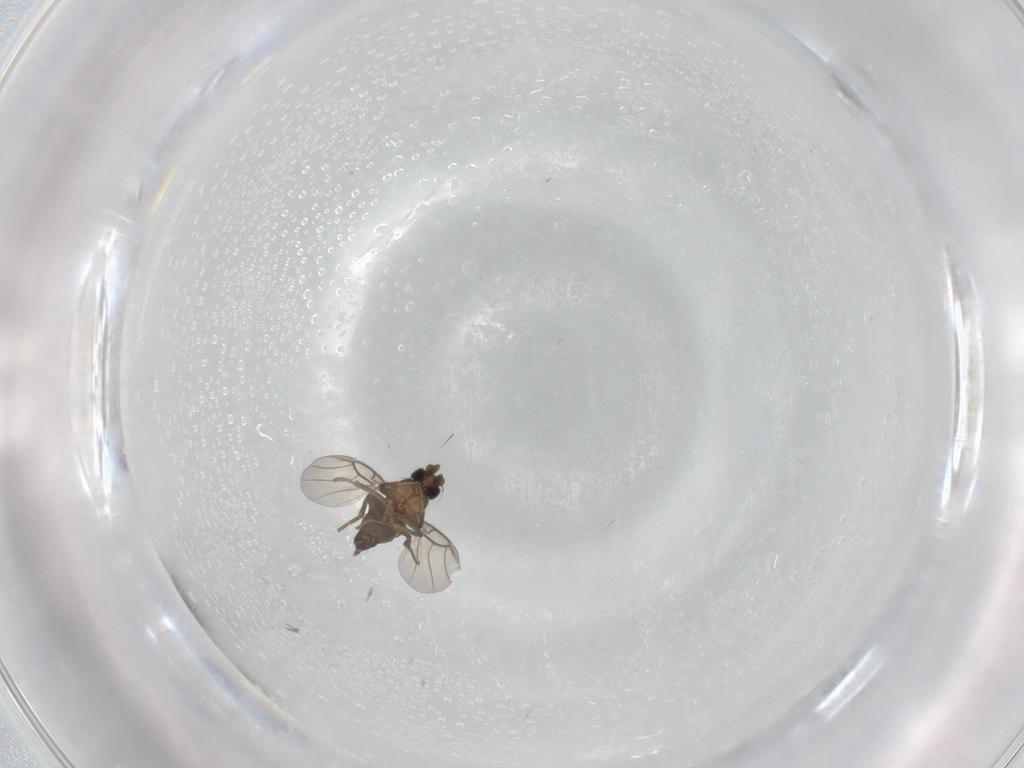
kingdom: Animalia
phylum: Arthropoda
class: Insecta
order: Diptera
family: Phoridae
